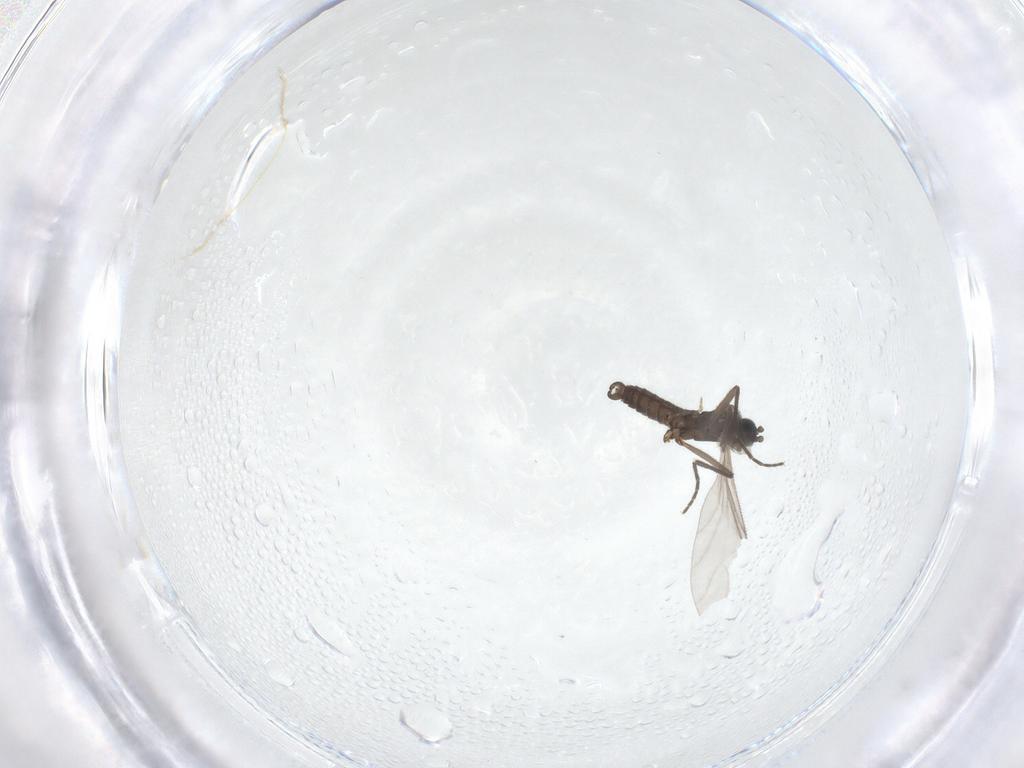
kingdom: Animalia
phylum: Arthropoda
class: Insecta
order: Diptera
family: Sciaridae
